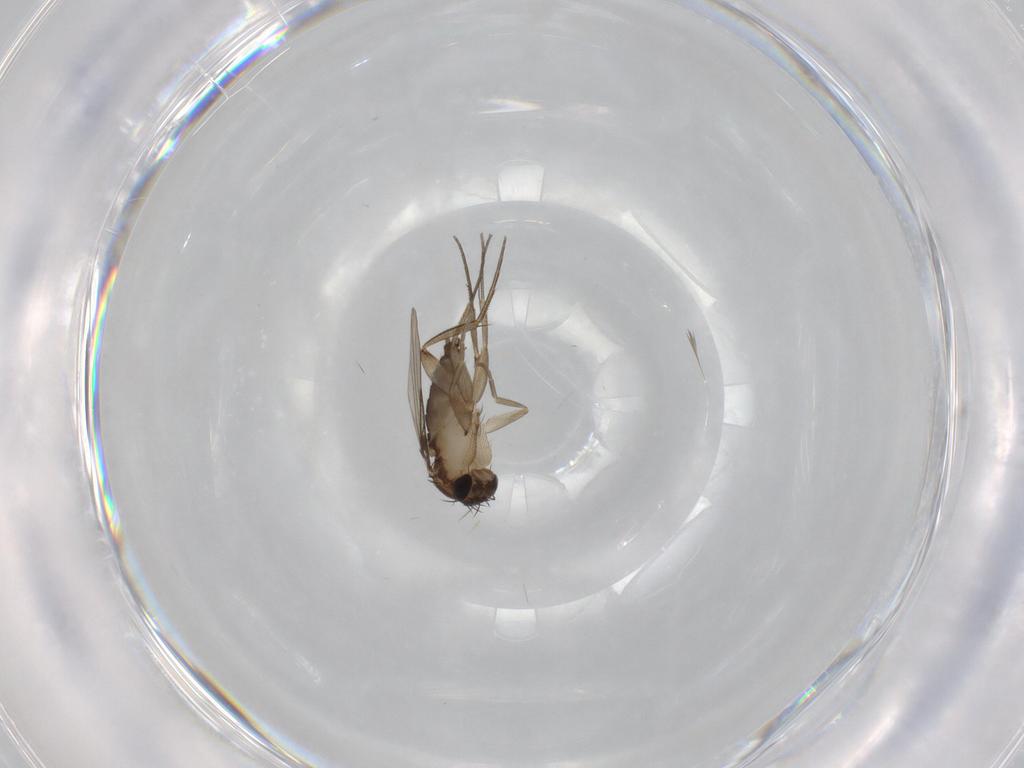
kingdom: Animalia
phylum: Arthropoda
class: Insecta
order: Diptera
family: Phoridae
